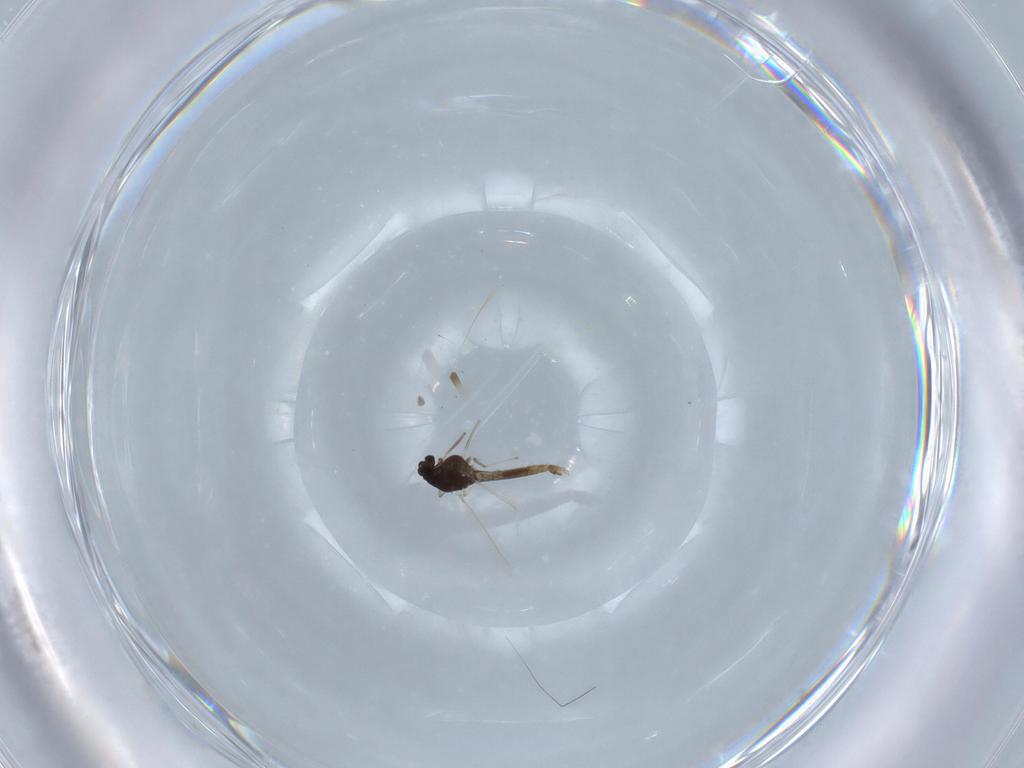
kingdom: Animalia
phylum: Arthropoda
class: Insecta
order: Diptera
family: Chironomidae
